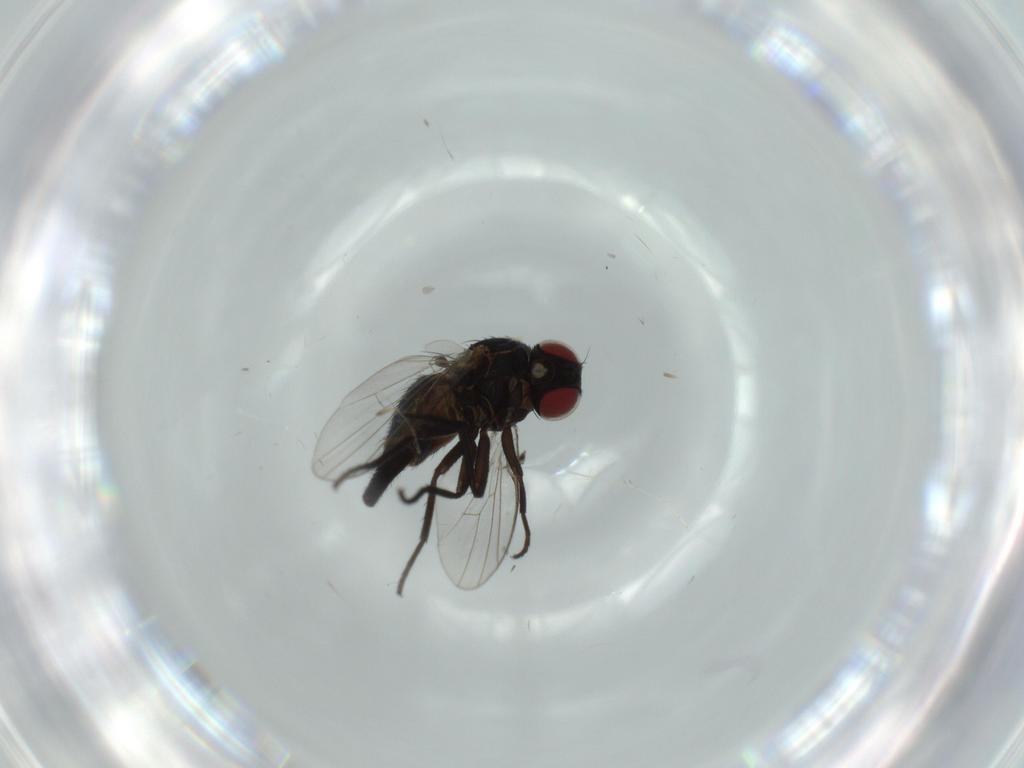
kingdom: Animalia
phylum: Arthropoda
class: Insecta
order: Diptera
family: Agromyzidae
